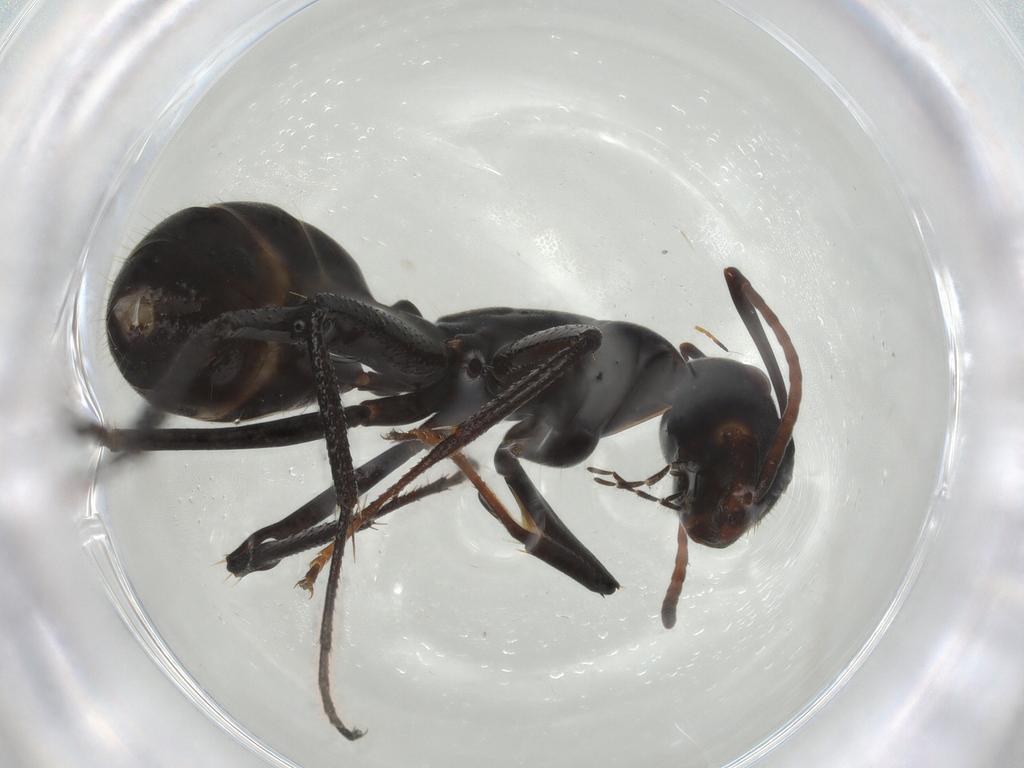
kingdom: Animalia
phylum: Arthropoda
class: Insecta
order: Hymenoptera
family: Formicidae
